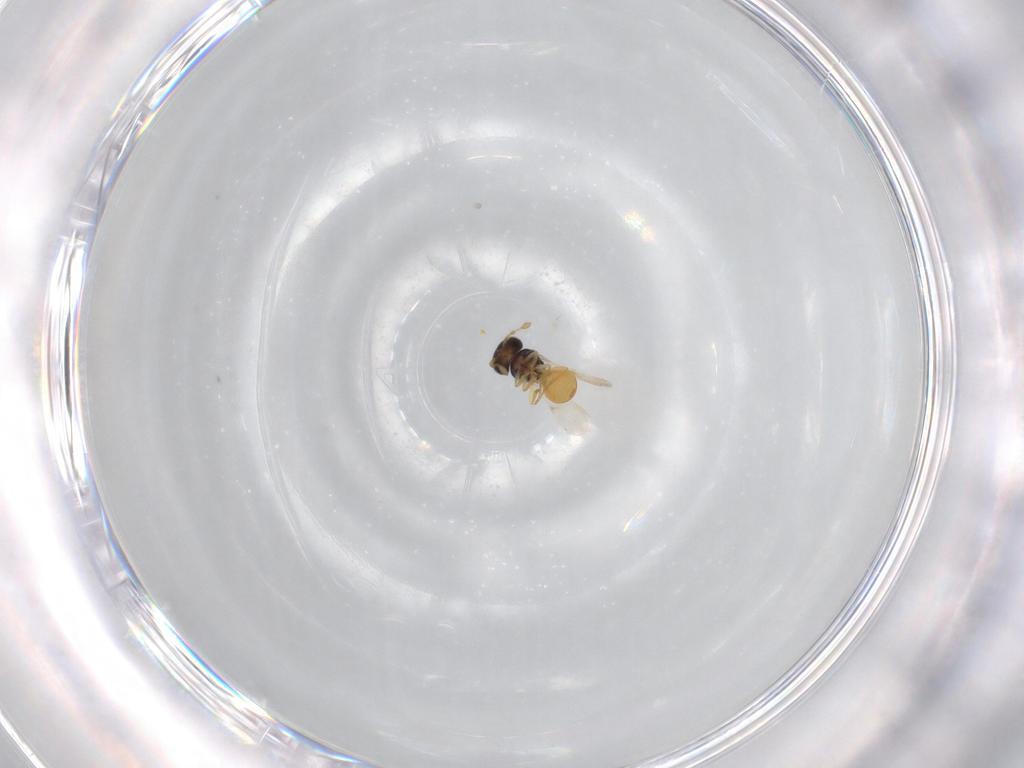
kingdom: Animalia
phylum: Arthropoda
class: Insecta
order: Hymenoptera
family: Scelionidae
